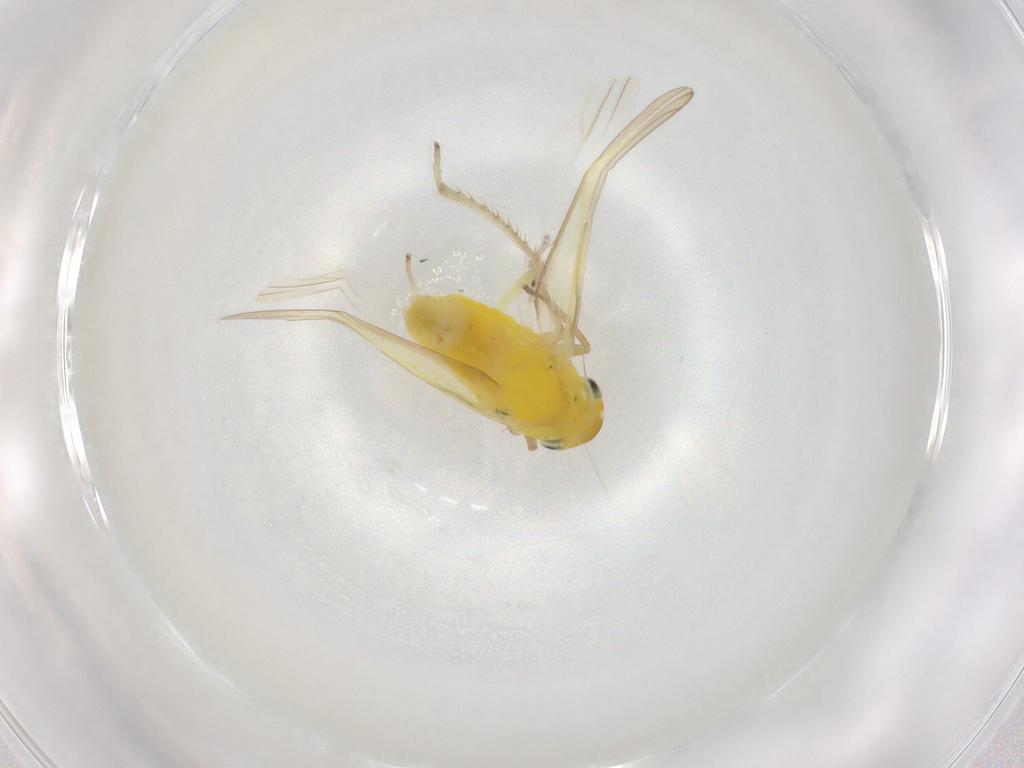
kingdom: Animalia
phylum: Arthropoda
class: Insecta
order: Hemiptera
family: Cicadellidae
